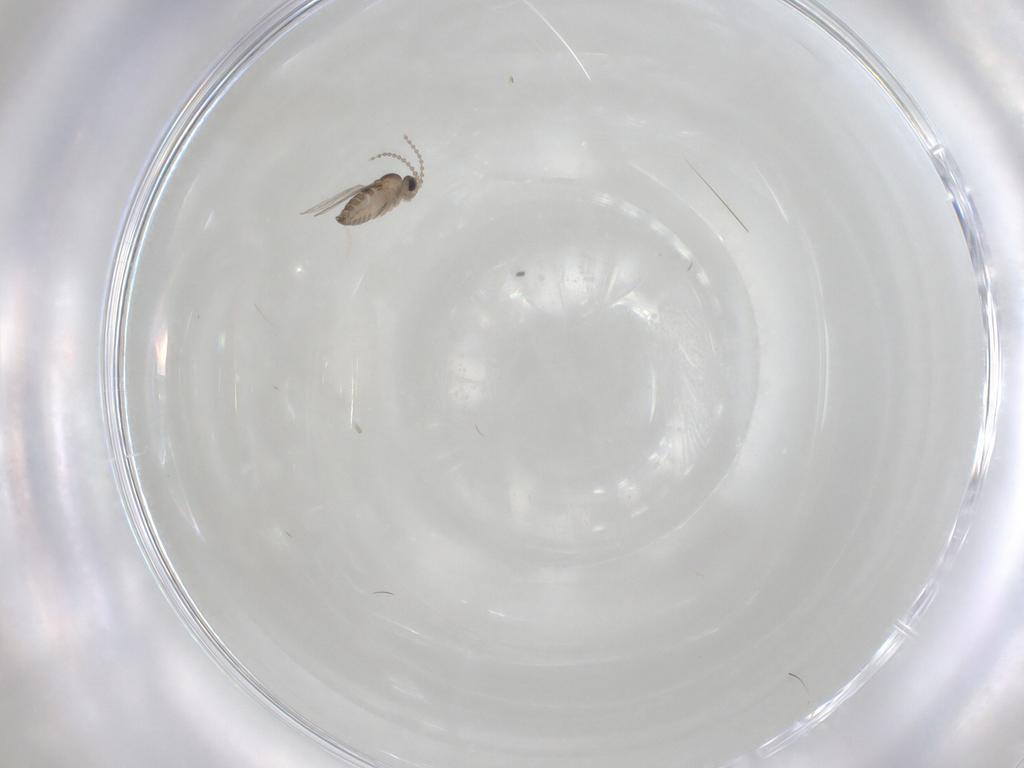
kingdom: Animalia
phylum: Arthropoda
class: Insecta
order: Diptera
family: Cecidomyiidae
